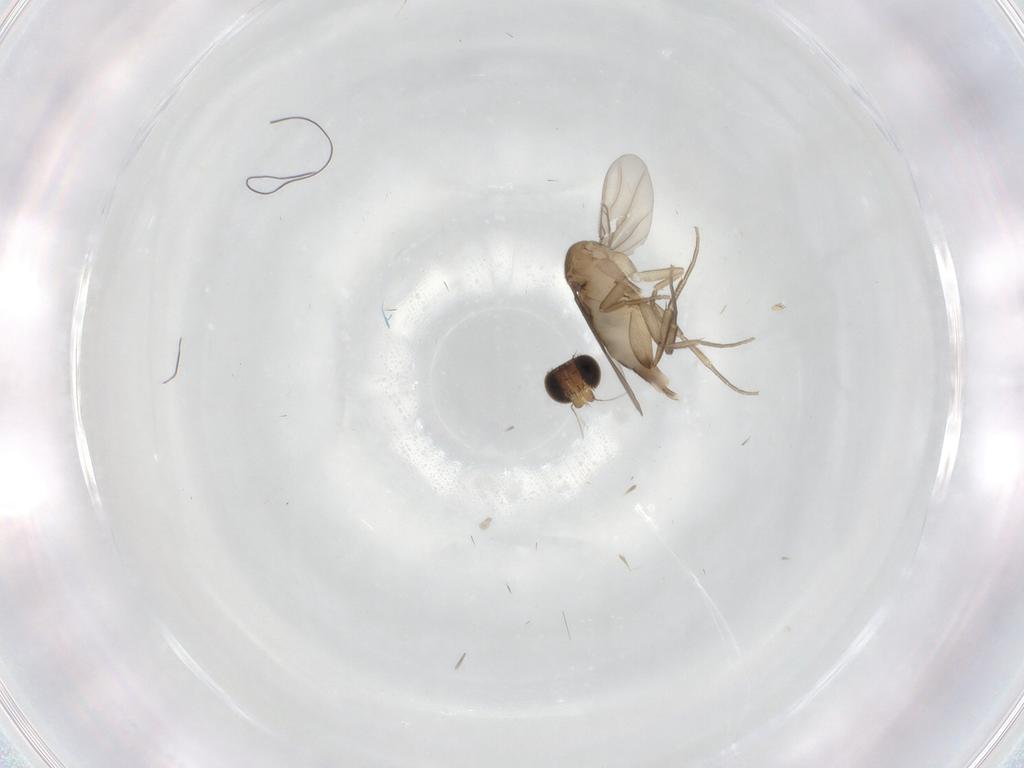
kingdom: Animalia
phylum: Arthropoda
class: Insecta
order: Diptera
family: Phoridae
